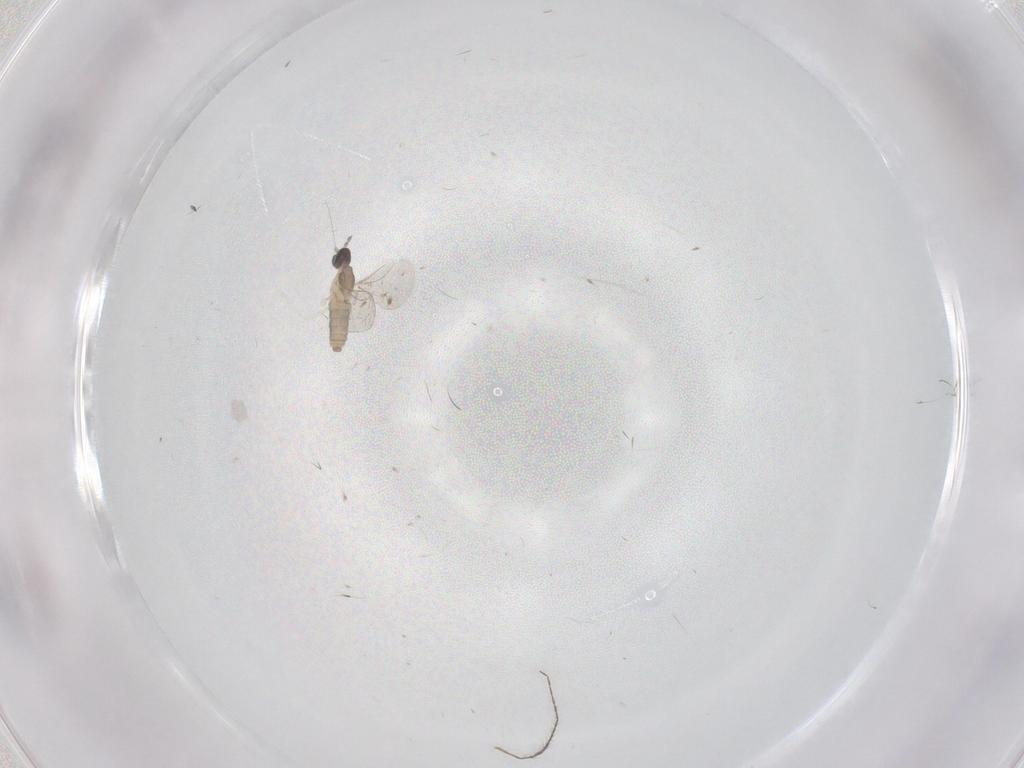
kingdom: Animalia
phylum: Arthropoda
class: Insecta
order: Diptera
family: Cecidomyiidae
